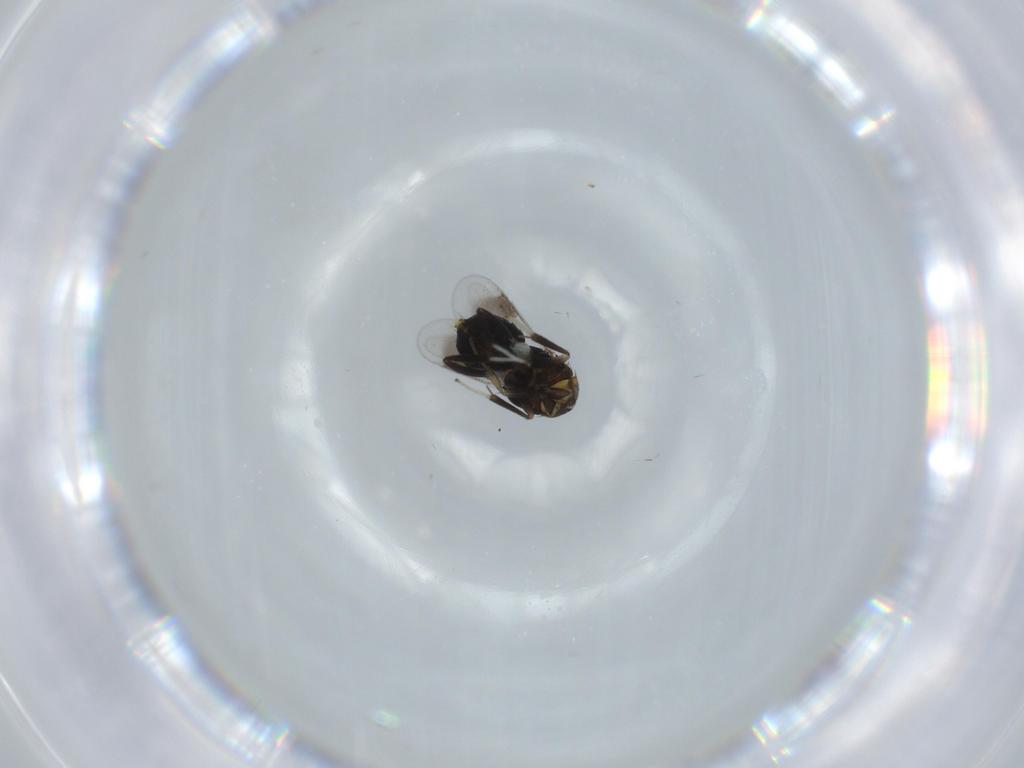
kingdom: Animalia
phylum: Arthropoda
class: Insecta
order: Hymenoptera
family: Aphelinidae
